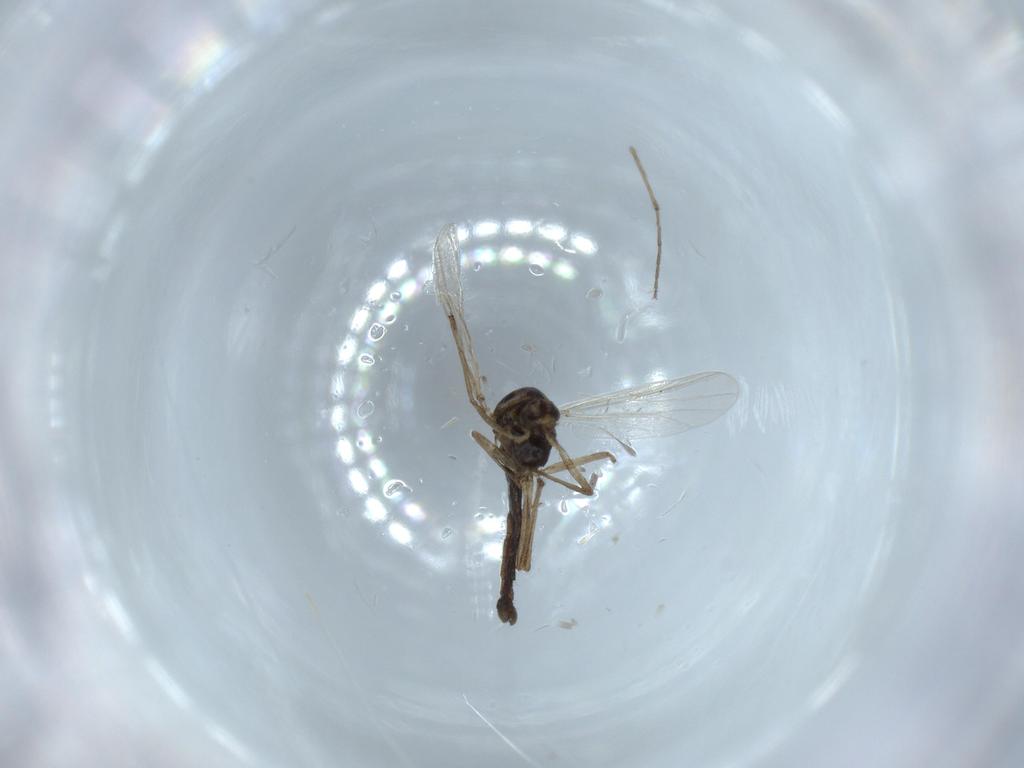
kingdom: Animalia
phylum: Arthropoda
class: Insecta
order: Diptera
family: Chironomidae
